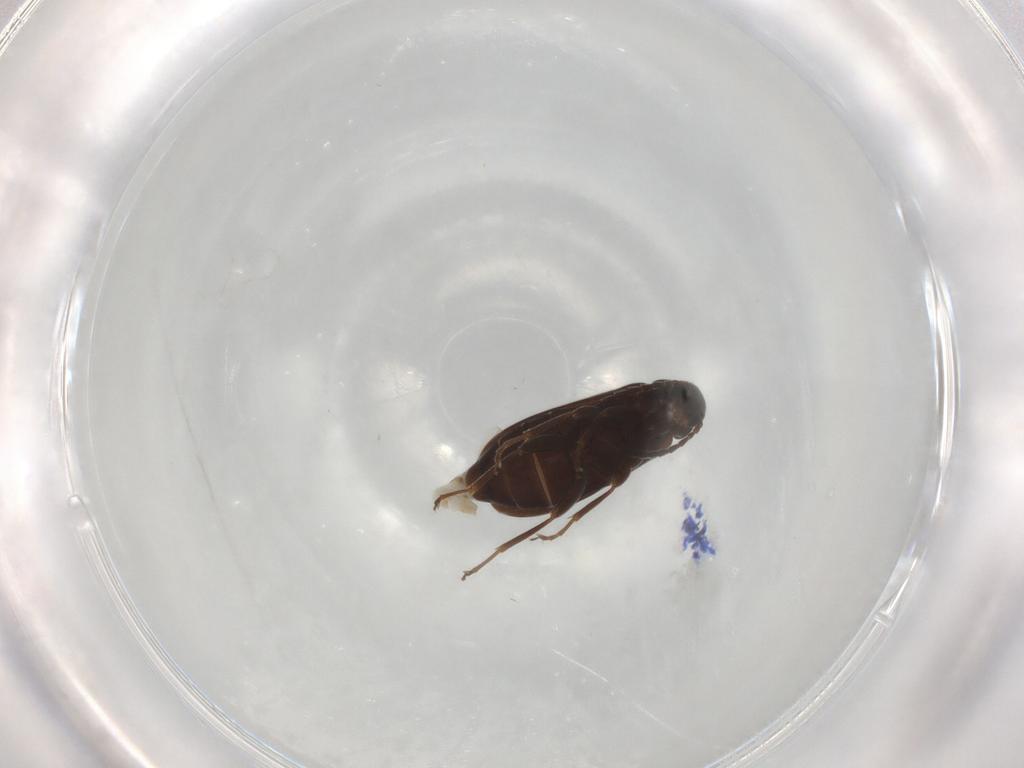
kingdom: Animalia
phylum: Arthropoda
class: Insecta
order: Coleoptera
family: Scraptiidae
